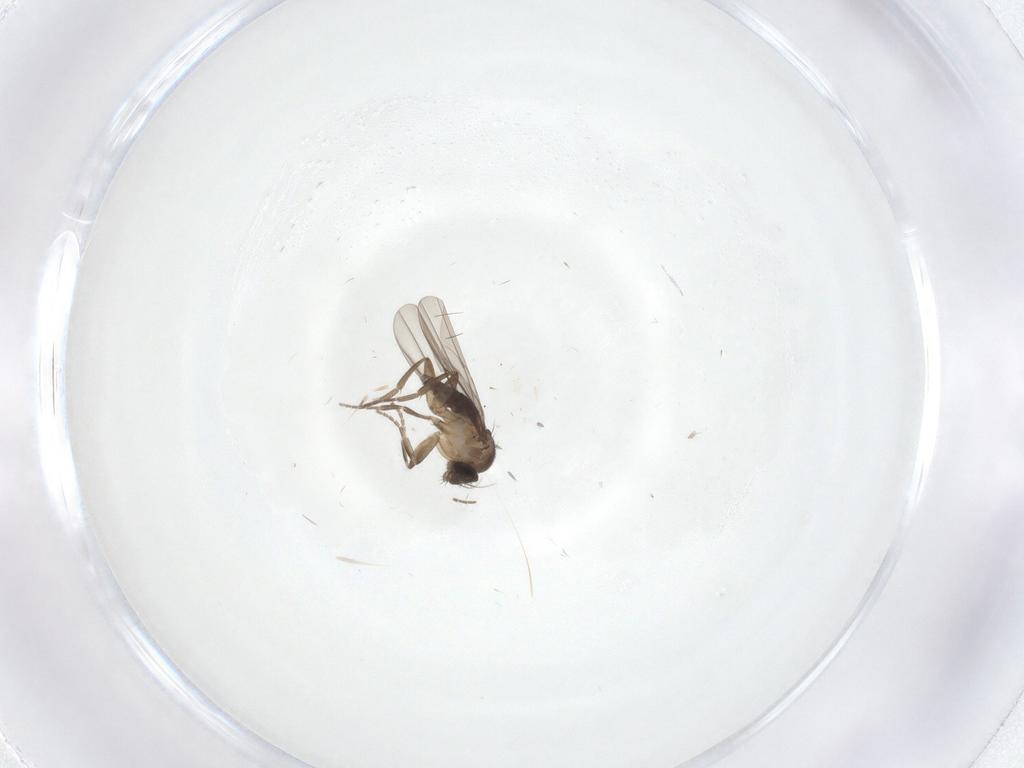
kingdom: Animalia
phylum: Arthropoda
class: Insecta
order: Diptera
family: Phoridae
